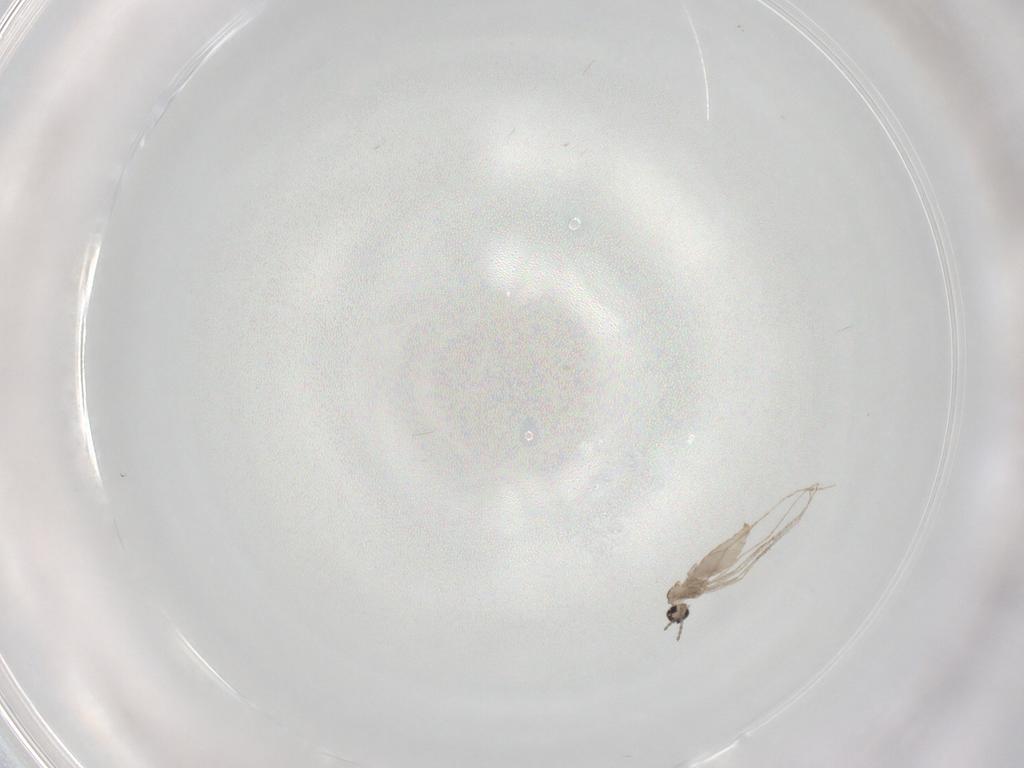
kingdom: Animalia
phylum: Arthropoda
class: Insecta
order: Diptera
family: Cecidomyiidae
